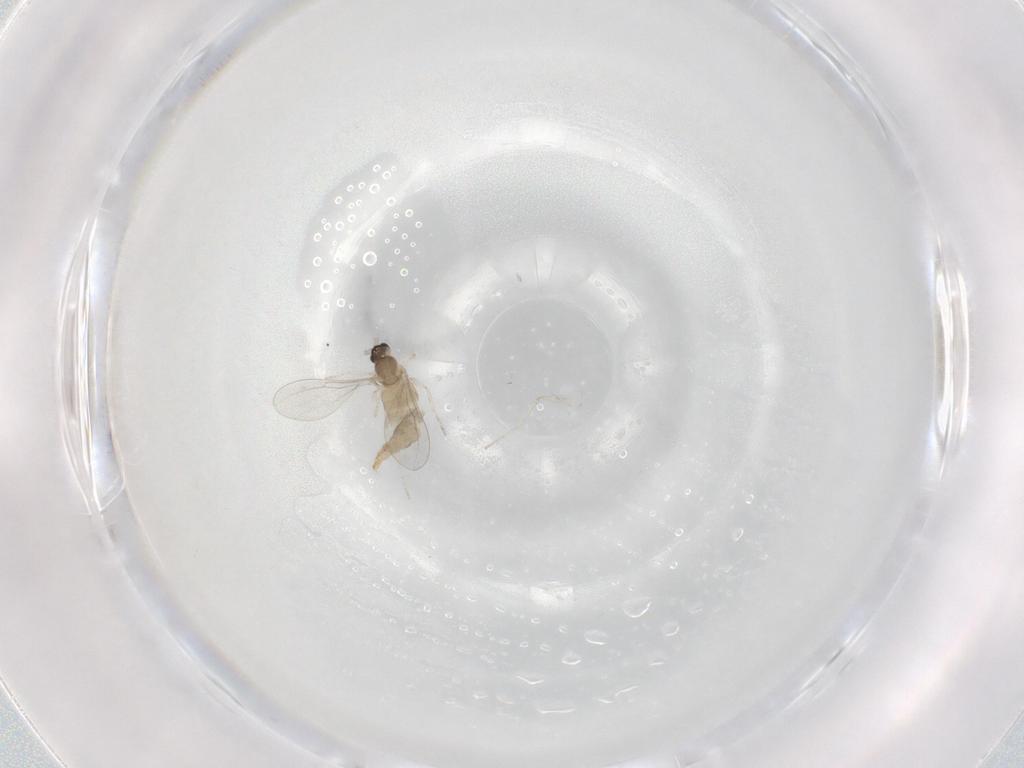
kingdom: Animalia
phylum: Arthropoda
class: Insecta
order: Diptera
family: Cecidomyiidae
